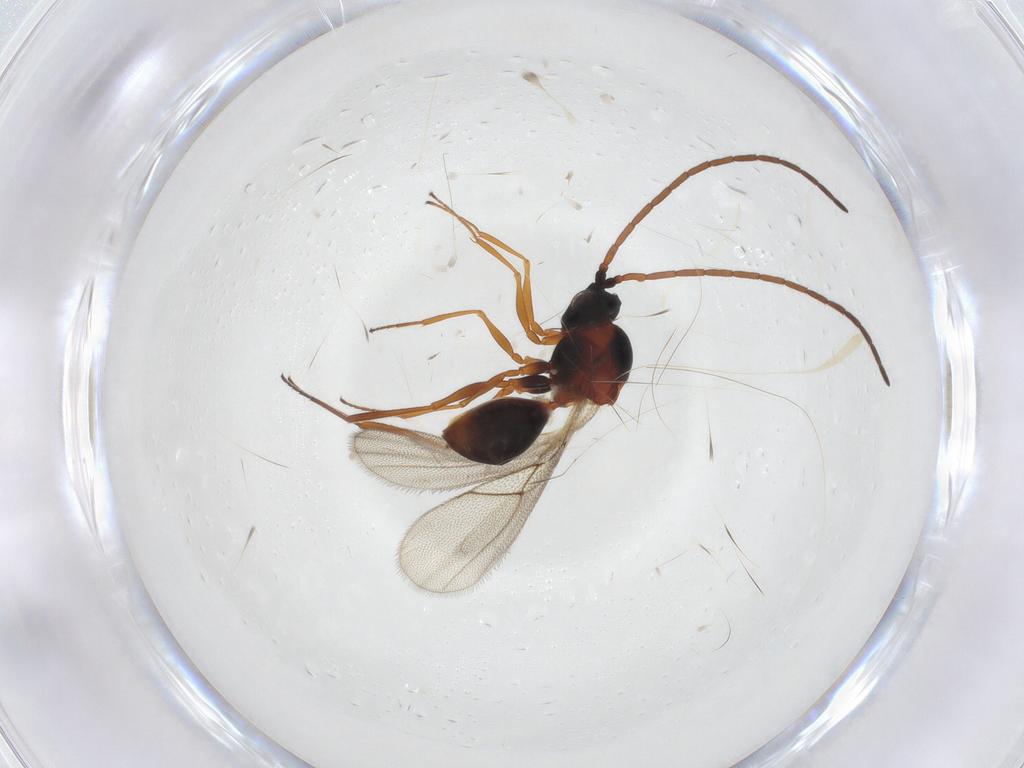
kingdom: Animalia
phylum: Arthropoda
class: Insecta
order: Hymenoptera
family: Figitidae
